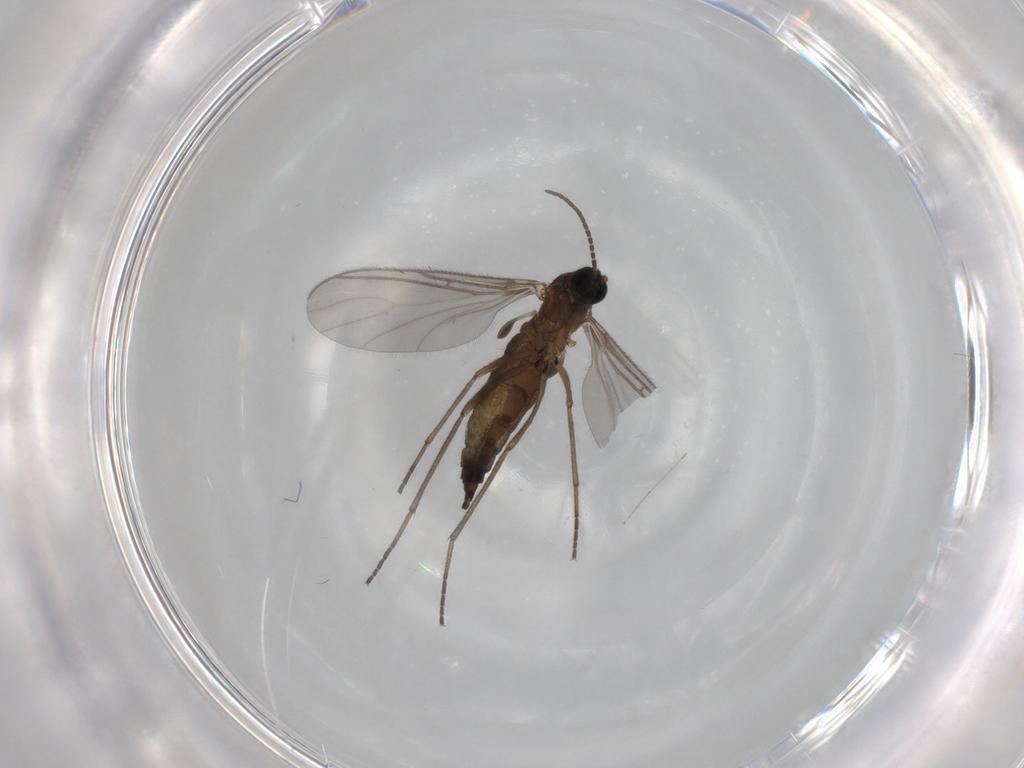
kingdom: Animalia
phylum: Arthropoda
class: Insecta
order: Diptera
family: Sciaridae
